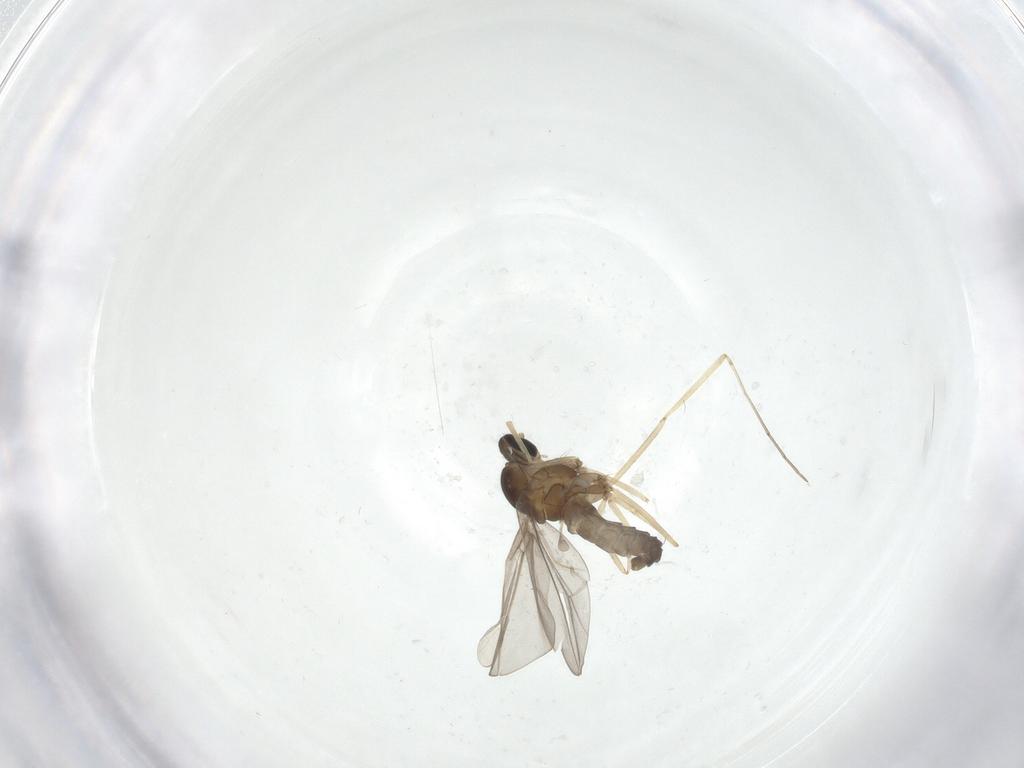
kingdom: Animalia
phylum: Arthropoda
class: Insecta
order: Diptera
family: Cecidomyiidae
